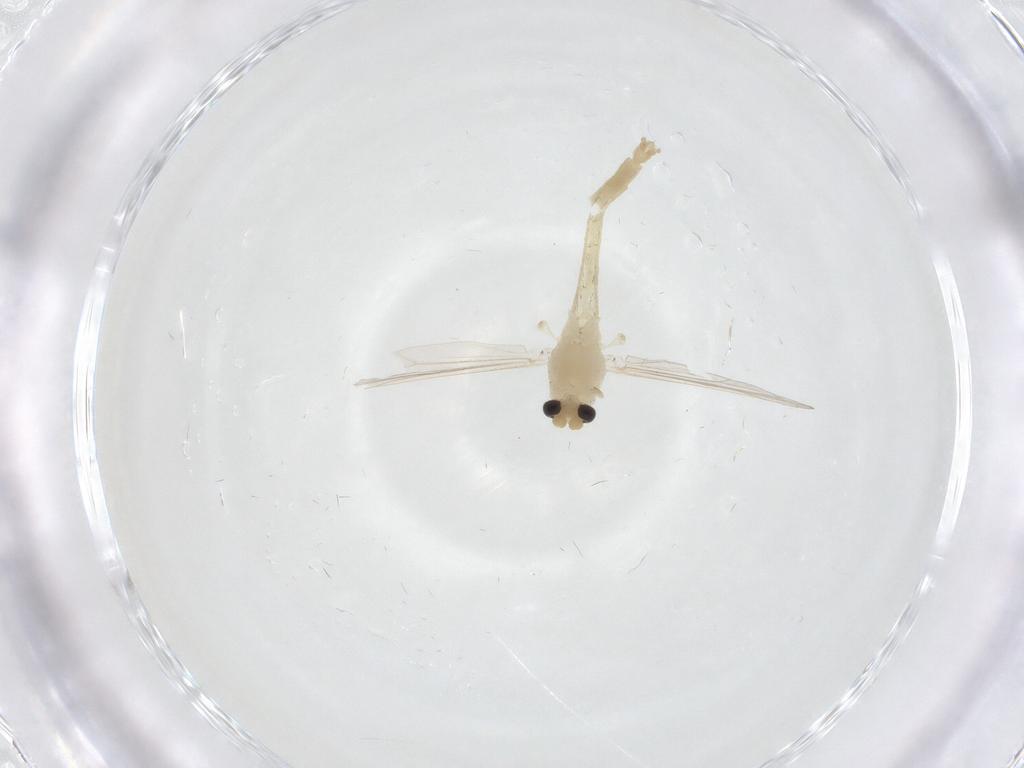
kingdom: Animalia
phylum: Arthropoda
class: Insecta
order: Diptera
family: Chironomidae
